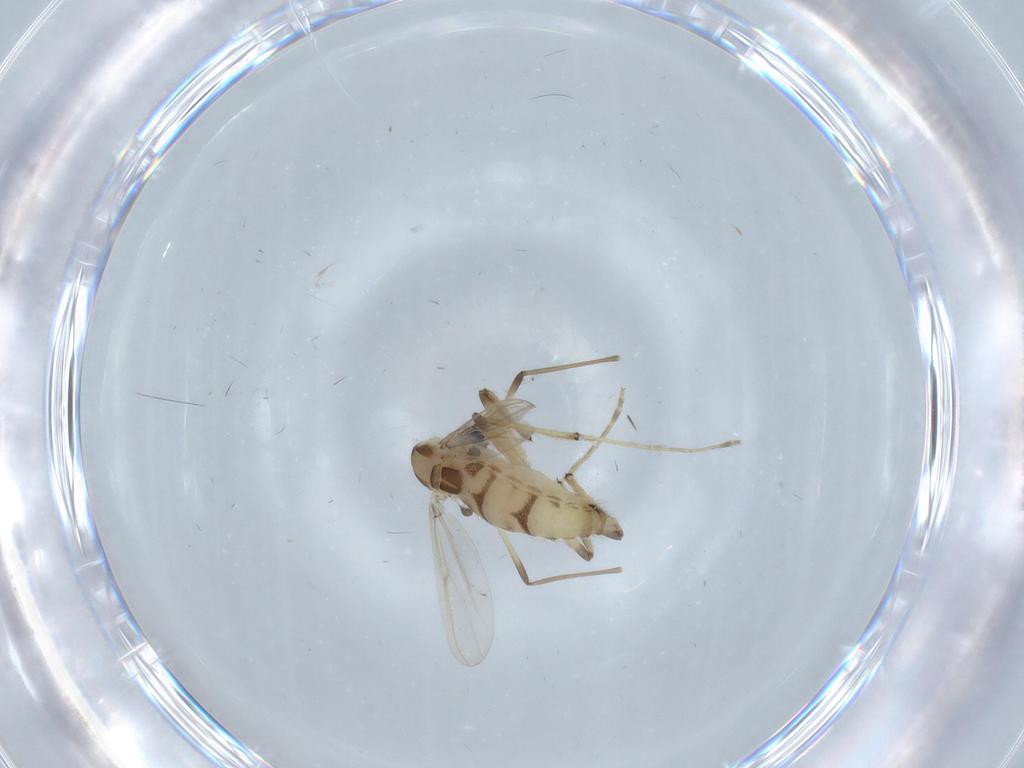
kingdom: Animalia
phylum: Arthropoda
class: Insecta
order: Diptera
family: Chironomidae
